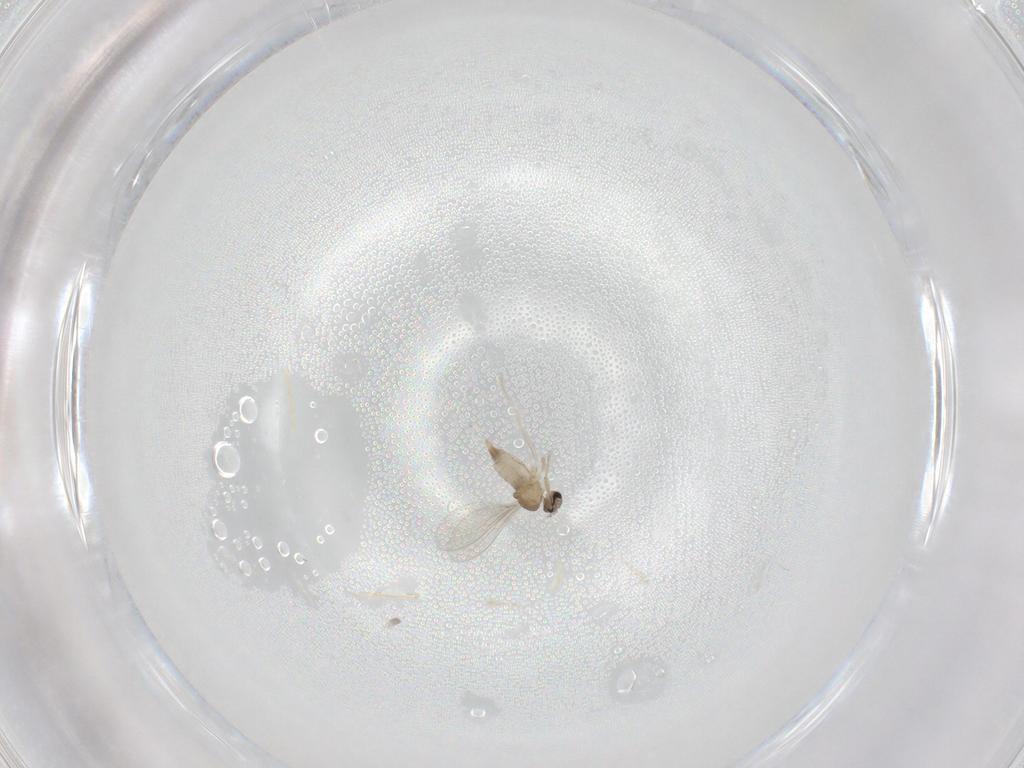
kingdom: Animalia
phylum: Arthropoda
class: Insecta
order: Diptera
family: Cecidomyiidae
